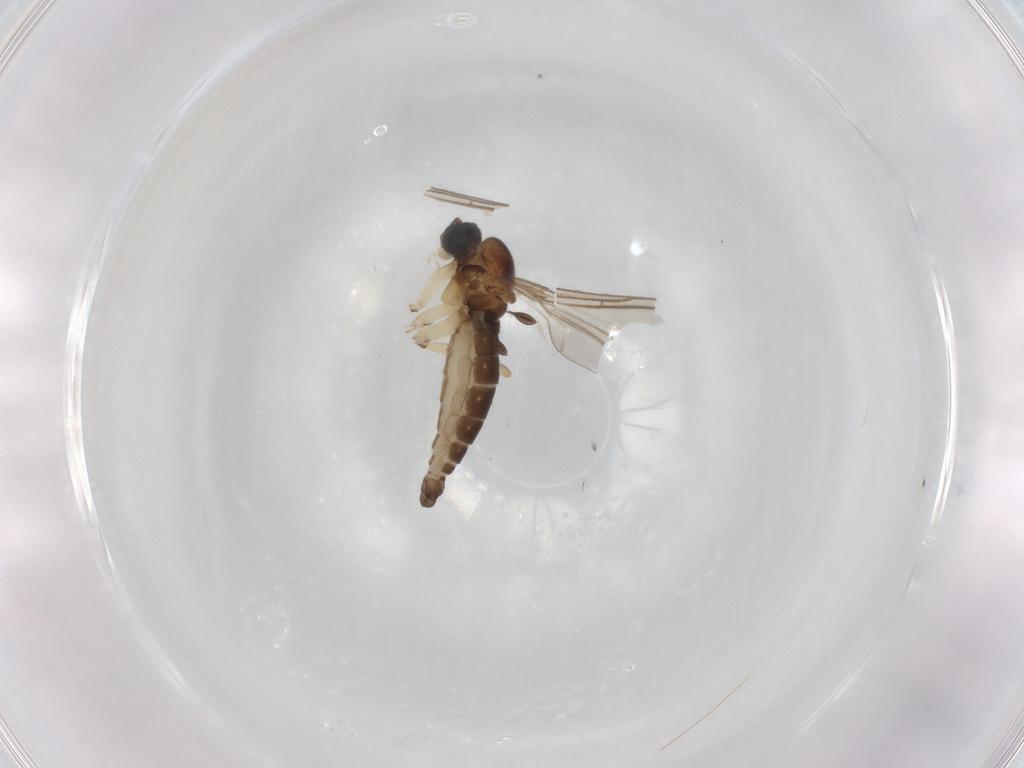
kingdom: Animalia
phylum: Arthropoda
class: Insecta
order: Diptera
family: Sciaridae
